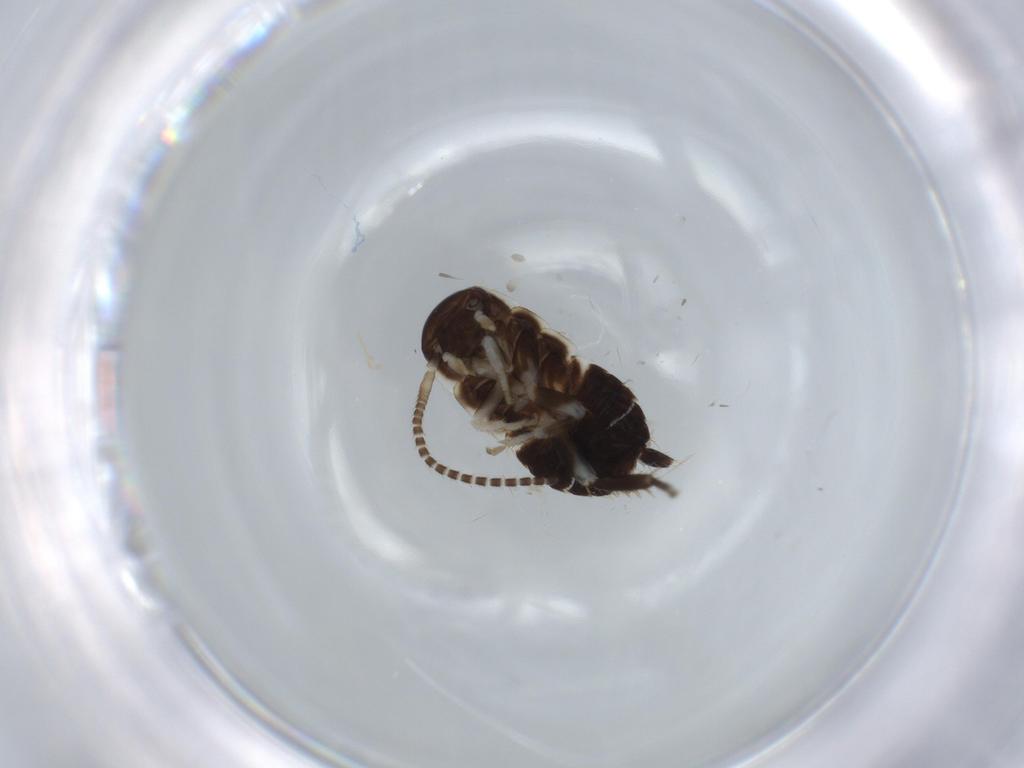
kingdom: Animalia
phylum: Arthropoda
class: Insecta
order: Blattodea
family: Ectobiidae
